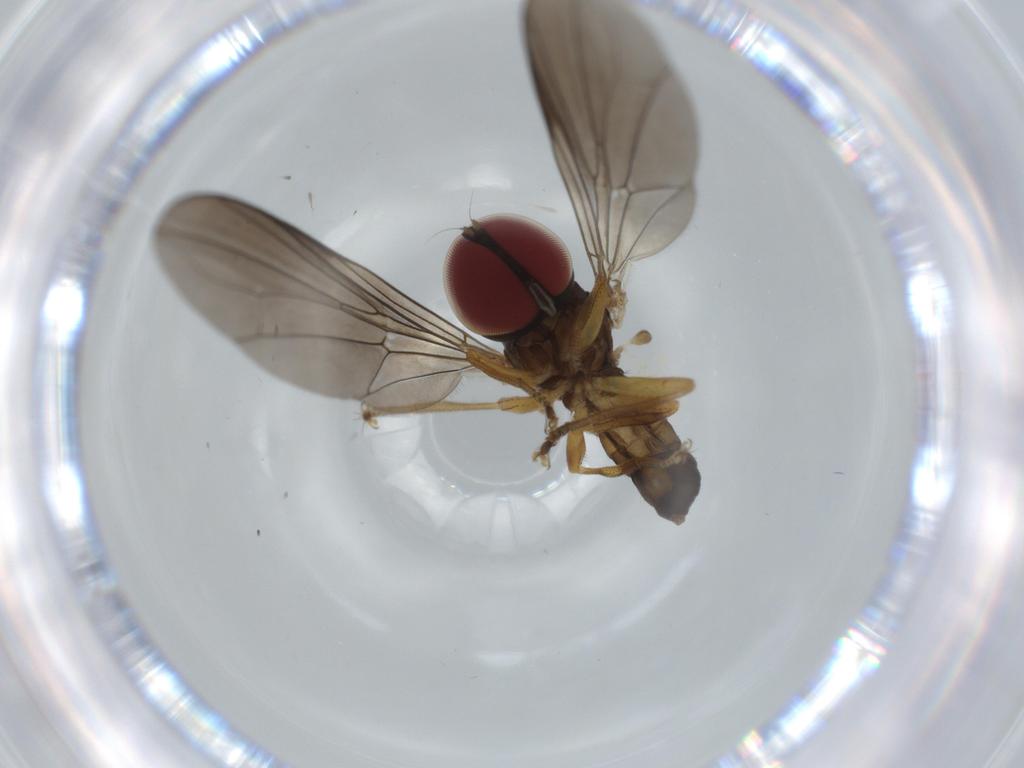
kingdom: Animalia
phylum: Arthropoda
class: Insecta
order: Diptera
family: Pipunculidae
